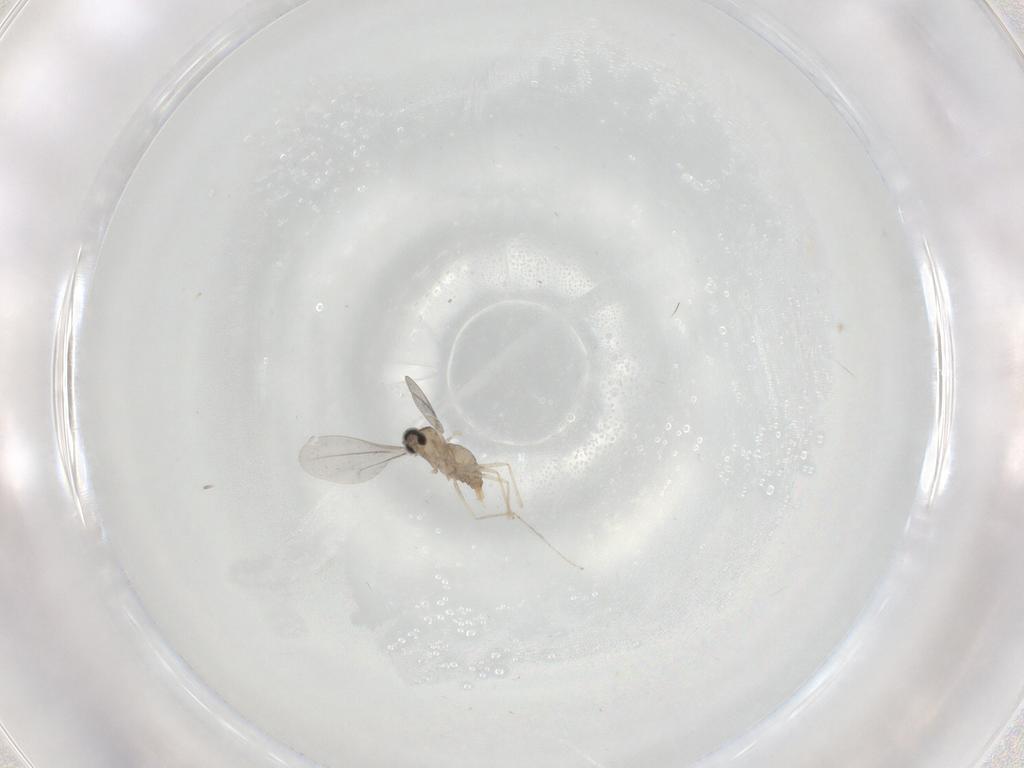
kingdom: Animalia
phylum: Arthropoda
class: Insecta
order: Diptera
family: Cecidomyiidae
